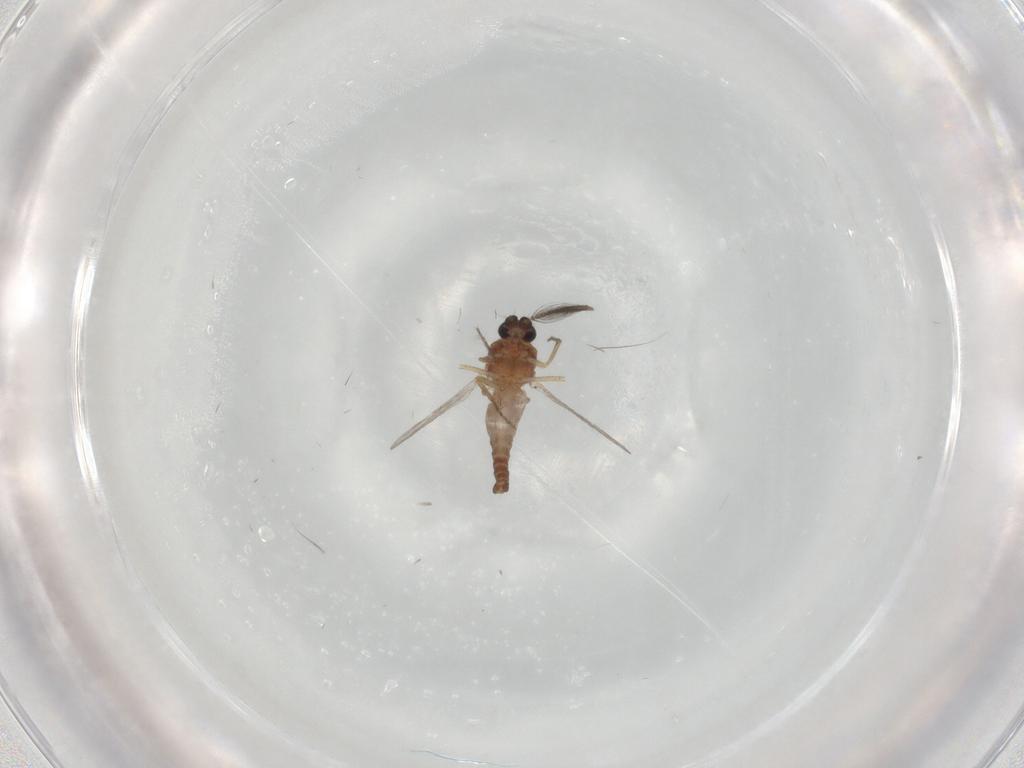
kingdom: Animalia
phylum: Arthropoda
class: Insecta
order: Diptera
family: Ceratopogonidae
